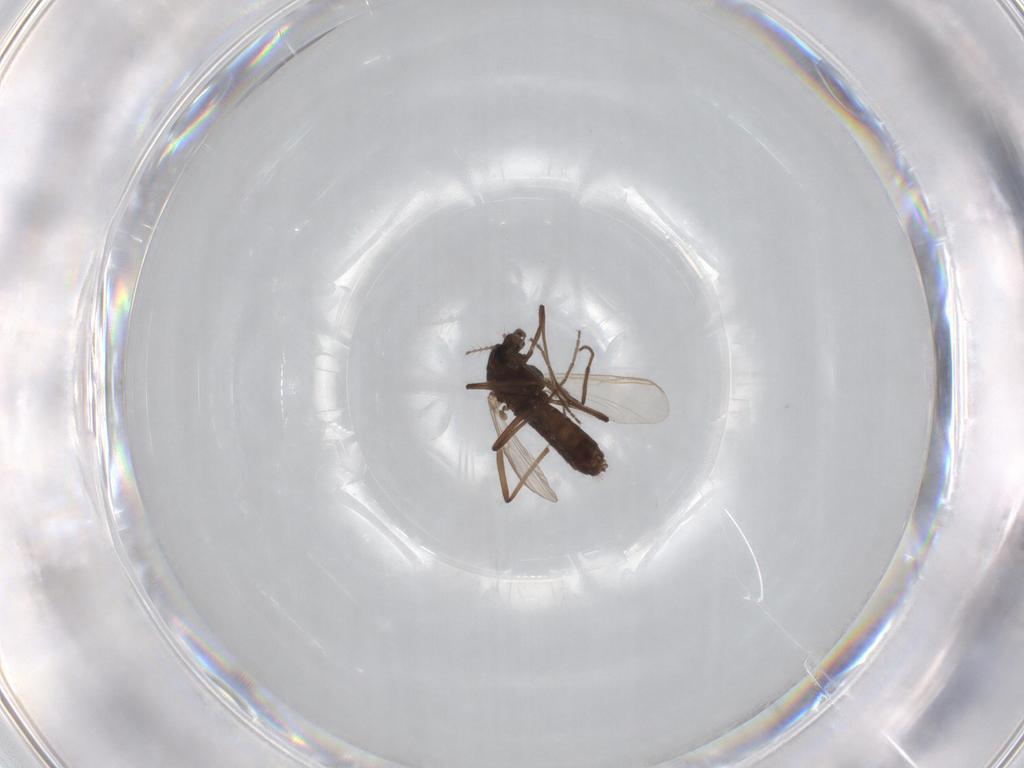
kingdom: Animalia
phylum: Arthropoda
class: Insecta
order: Diptera
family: Chironomidae
